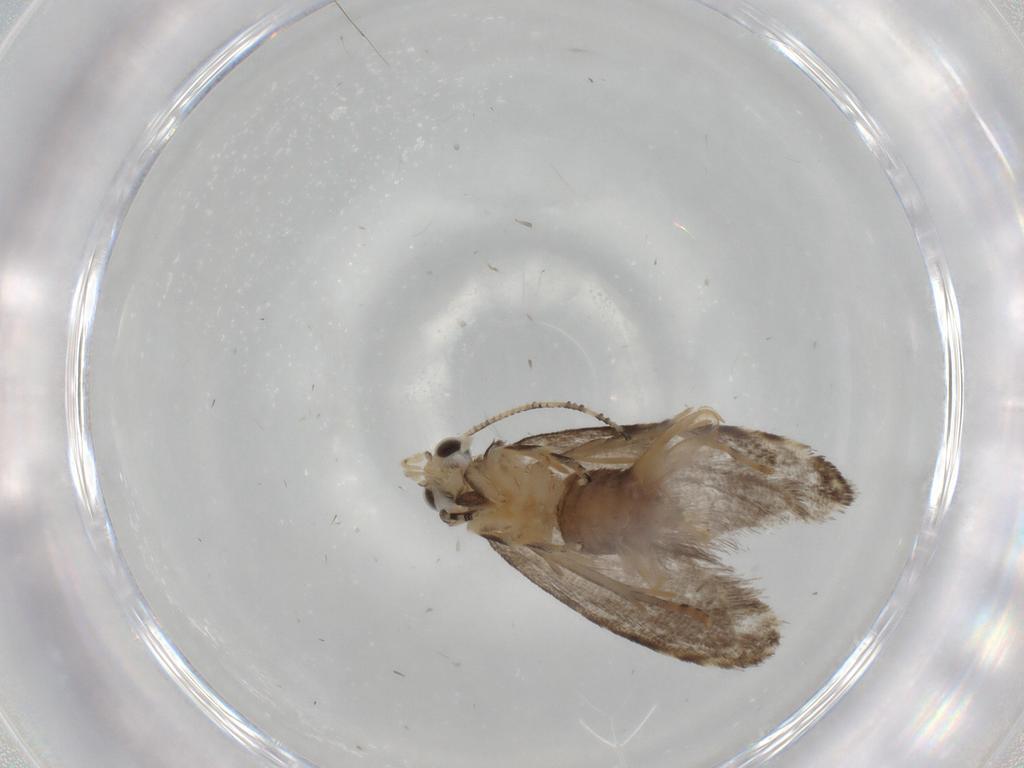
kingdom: Animalia
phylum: Arthropoda
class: Insecta
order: Lepidoptera
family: Tineidae
